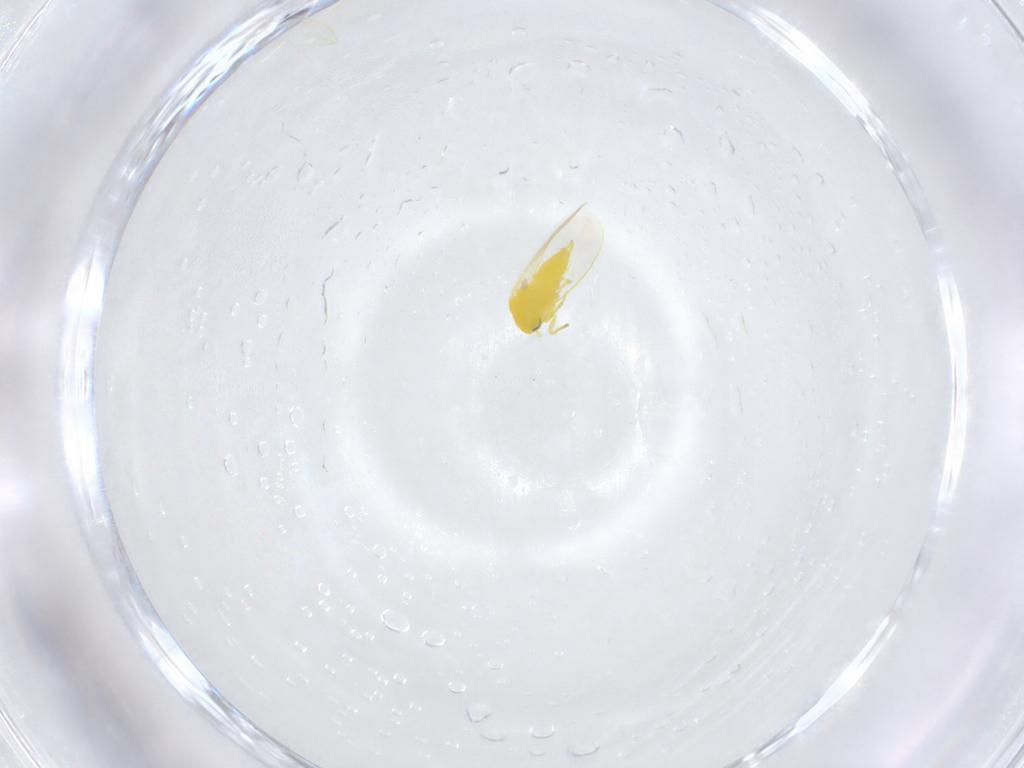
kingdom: Animalia
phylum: Arthropoda
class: Insecta
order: Hemiptera
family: Aleyrodidae
